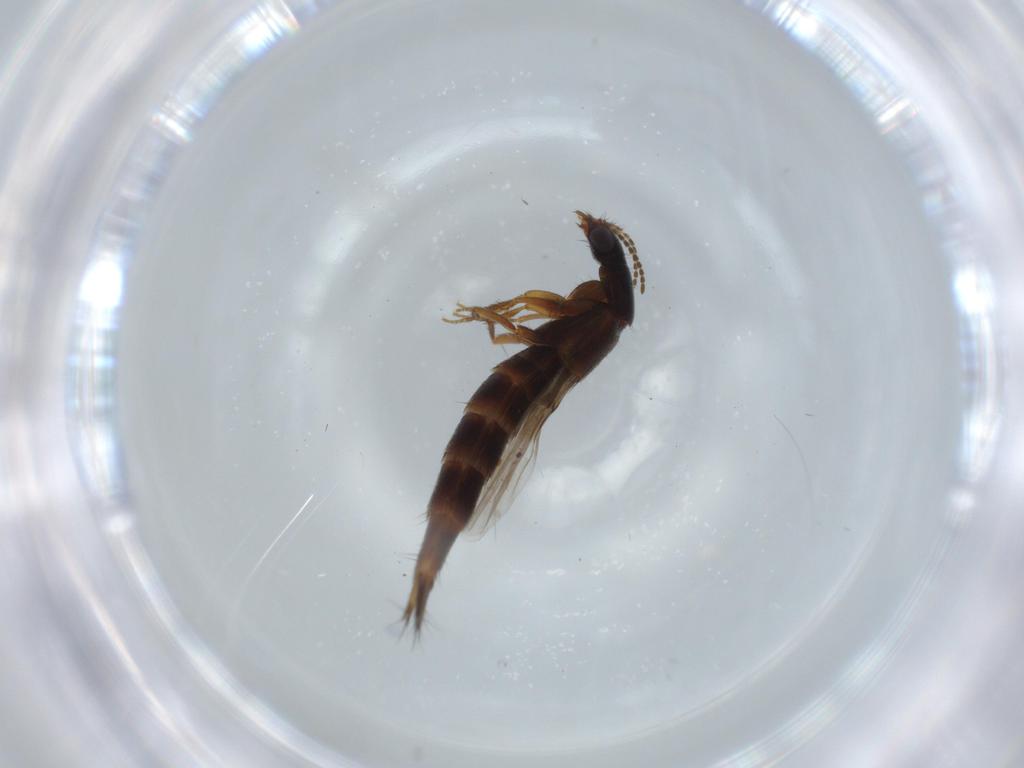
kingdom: Animalia
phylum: Arthropoda
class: Insecta
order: Coleoptera
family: Staphylinidae
